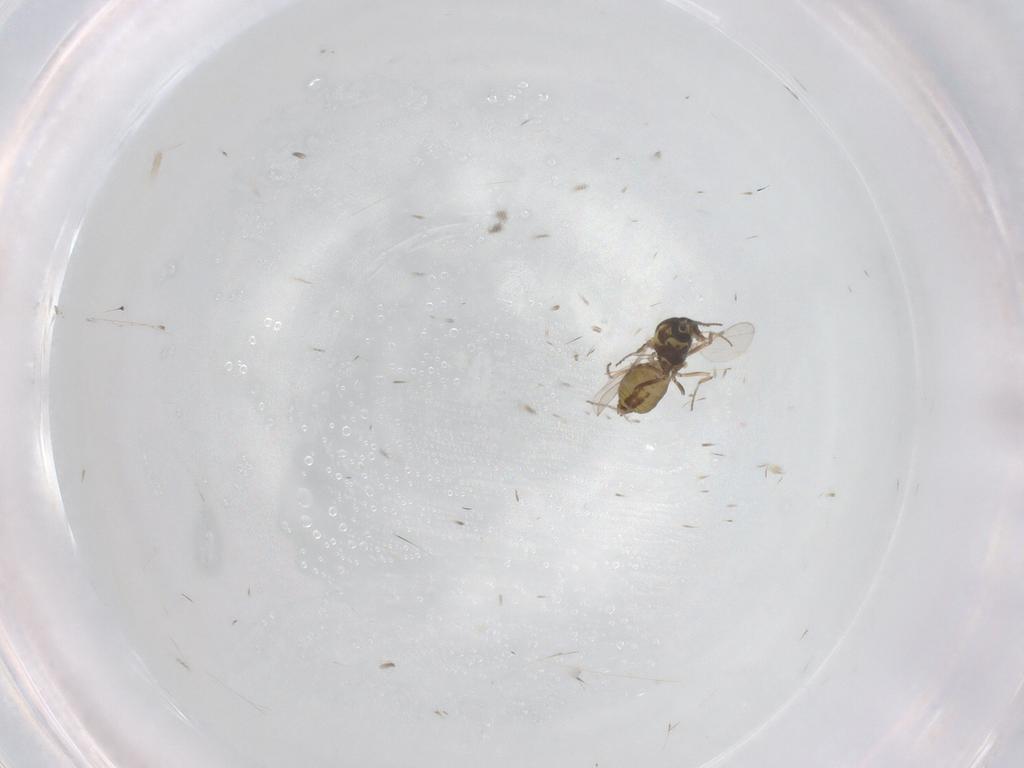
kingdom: Animalia
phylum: Arthropoda
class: Insecta
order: Diptera
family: Ceratopogonidae
